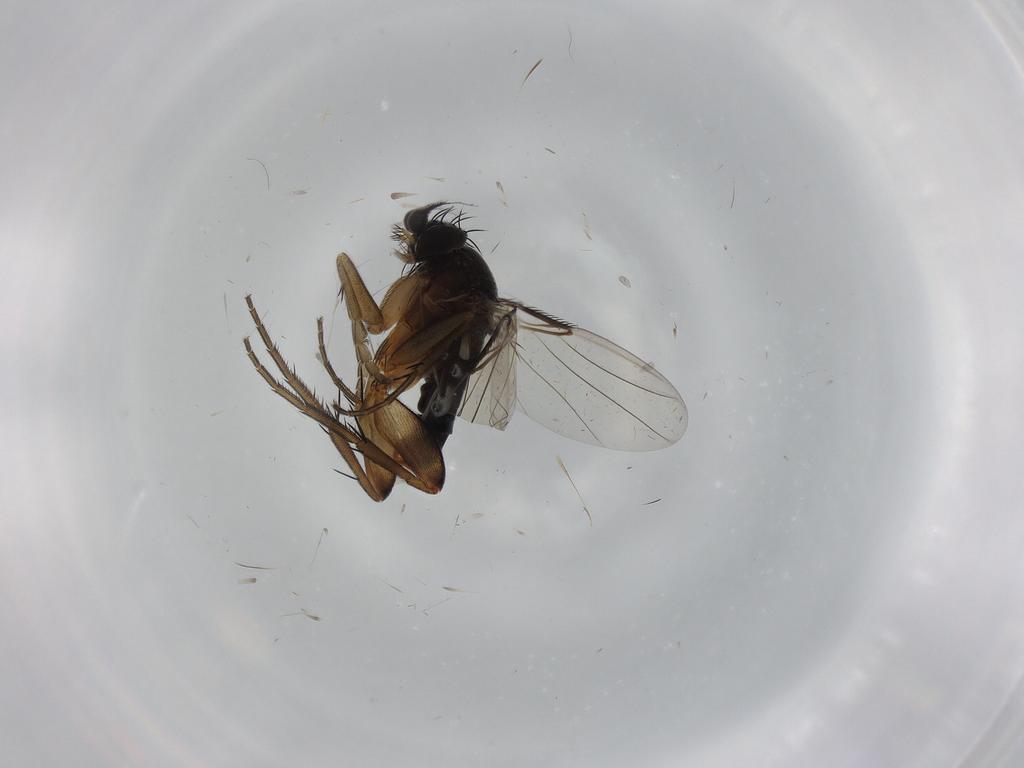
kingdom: Animalia
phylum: Arthropoda
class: Insecta
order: Diptera
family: Phoridae
